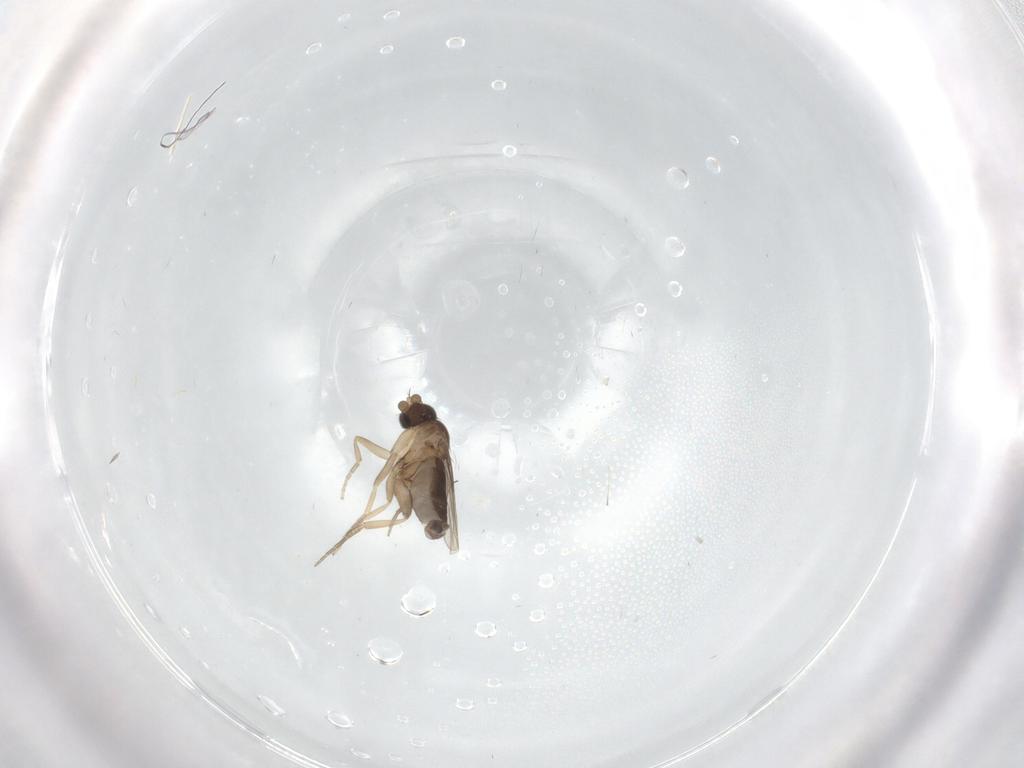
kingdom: Animalia
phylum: Arthropoda
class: Insecta
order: Diptera
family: Phoridae
